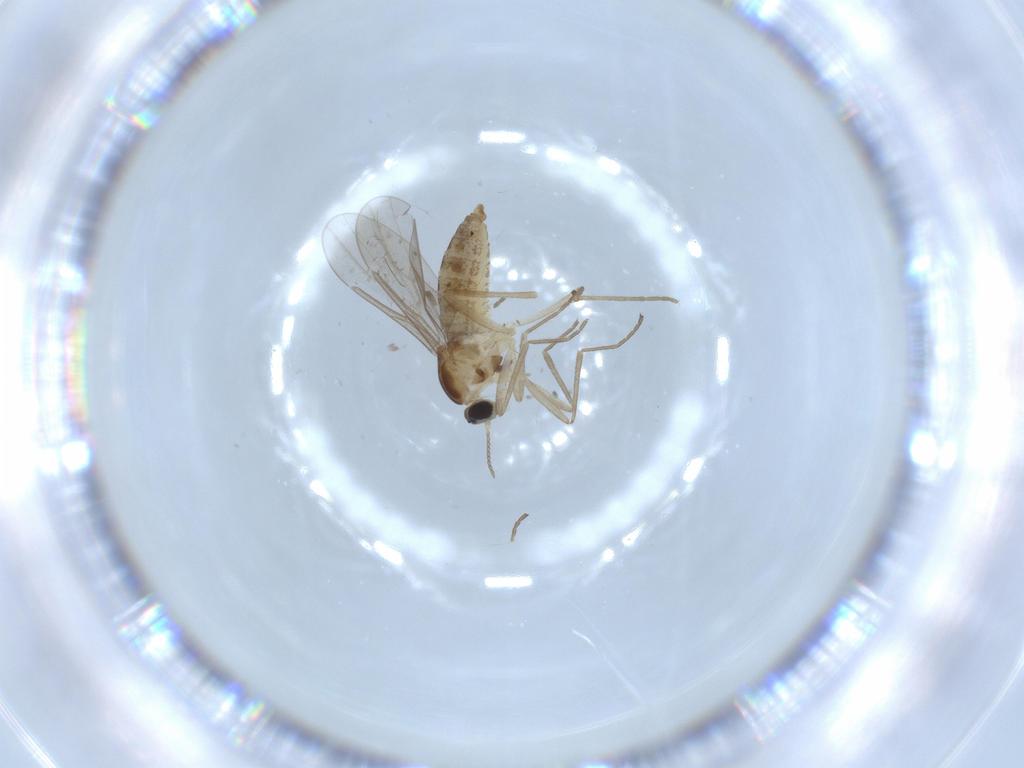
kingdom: Animalia
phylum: Arthropoda
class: Insecta
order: Diptera
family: Cecidomyiidae
